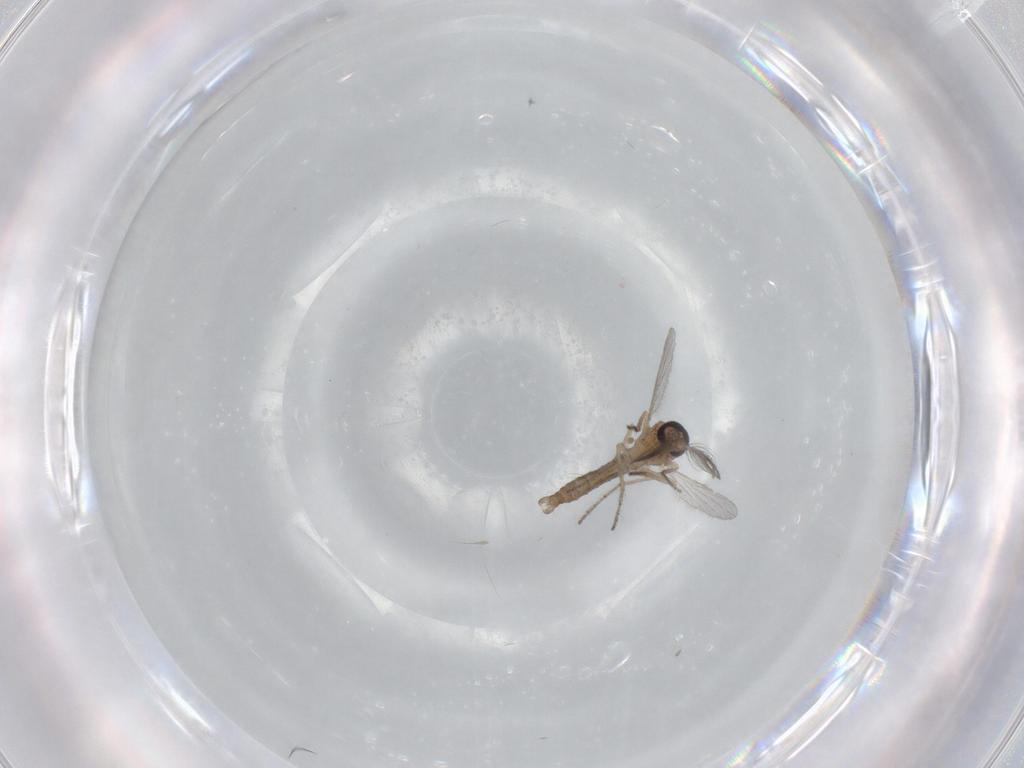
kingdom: Animalia
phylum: Arthropoda
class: Insecta
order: Diptera
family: Ceratopogonidae
